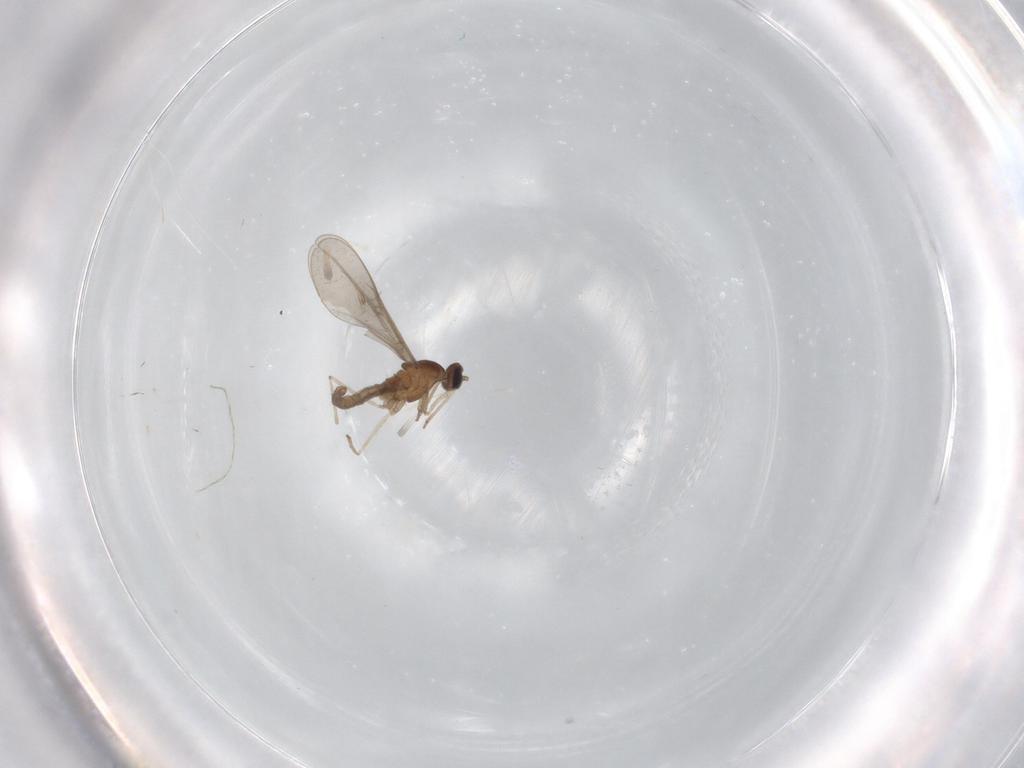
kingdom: Animalia
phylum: Arthropoda
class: Insecta
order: Diptera
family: Cecidomyiidae
